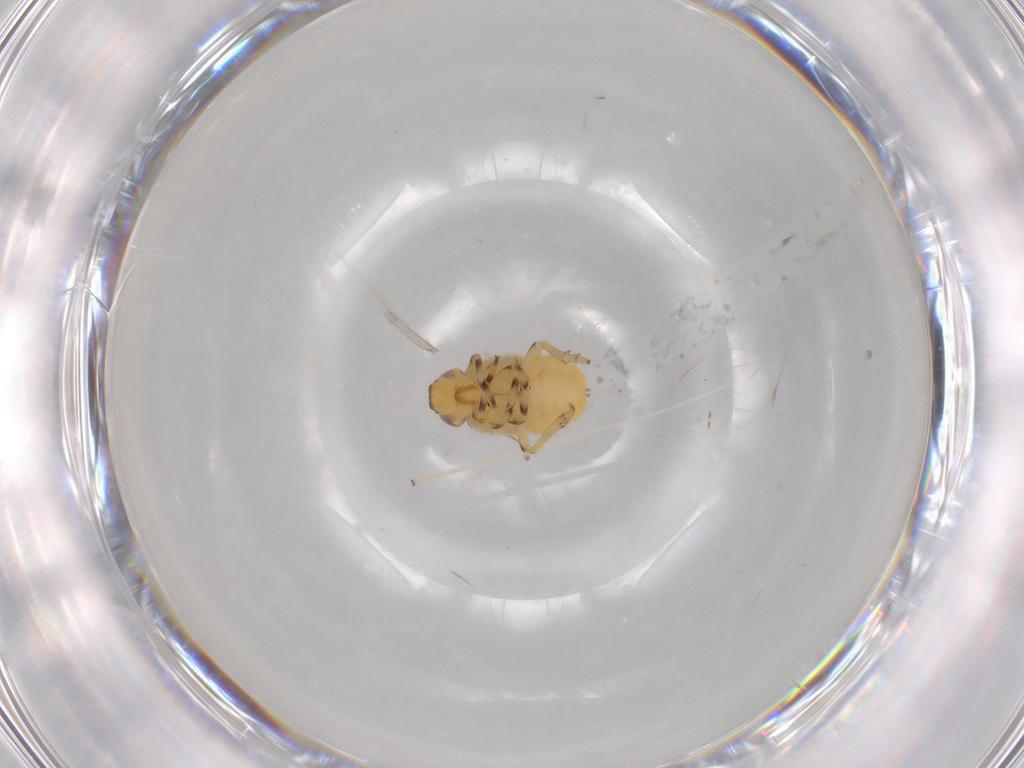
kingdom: Animalia
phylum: Arthropoda
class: Insecta
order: Hemiptera
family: Issidae
